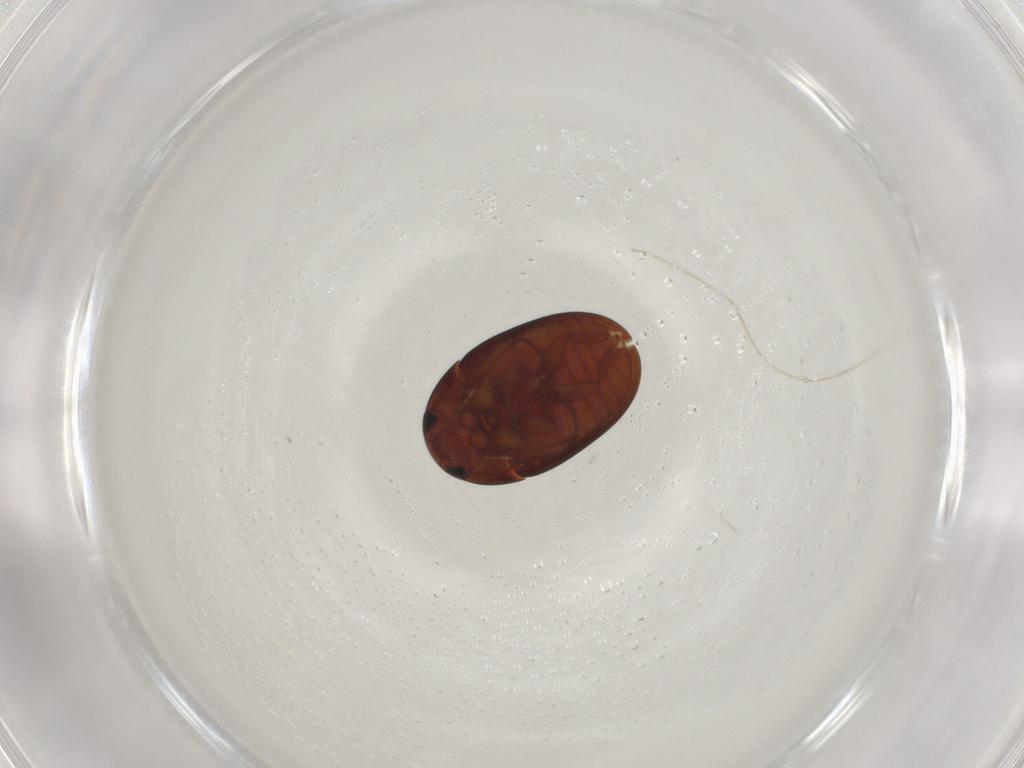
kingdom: Animalia
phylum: Arthropoda
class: Insecta
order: Coleoptera
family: Phalacridae
